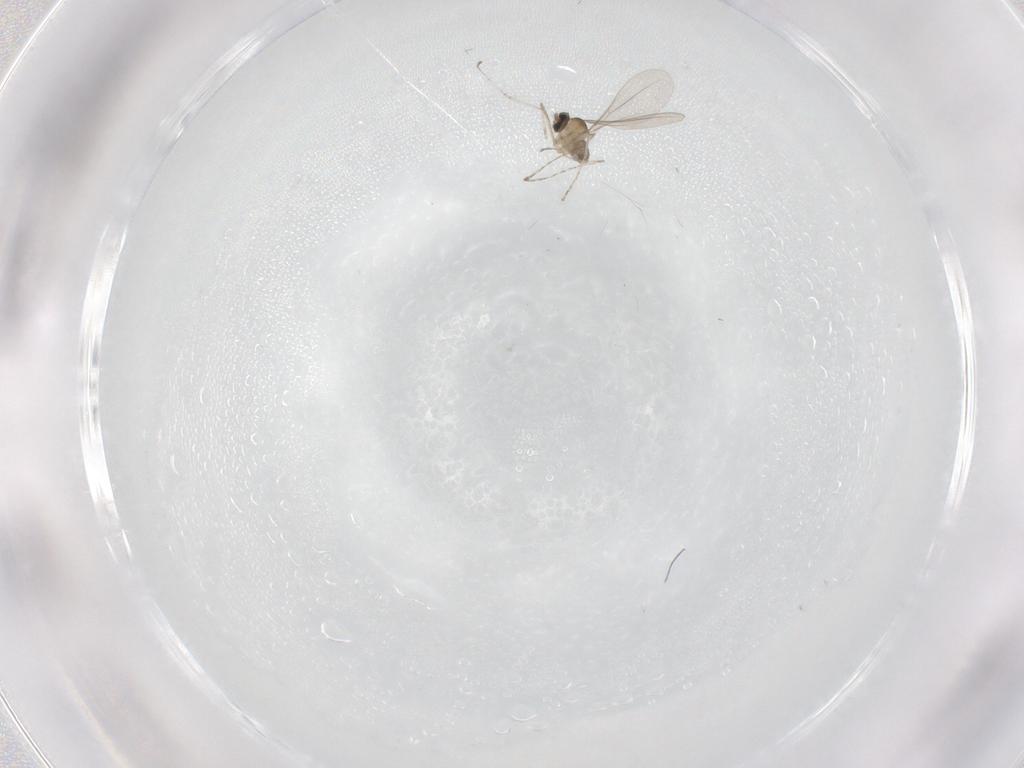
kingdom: Animalia
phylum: Arthropoda
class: Insecta
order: Diptera
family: Cecidomyiidae
